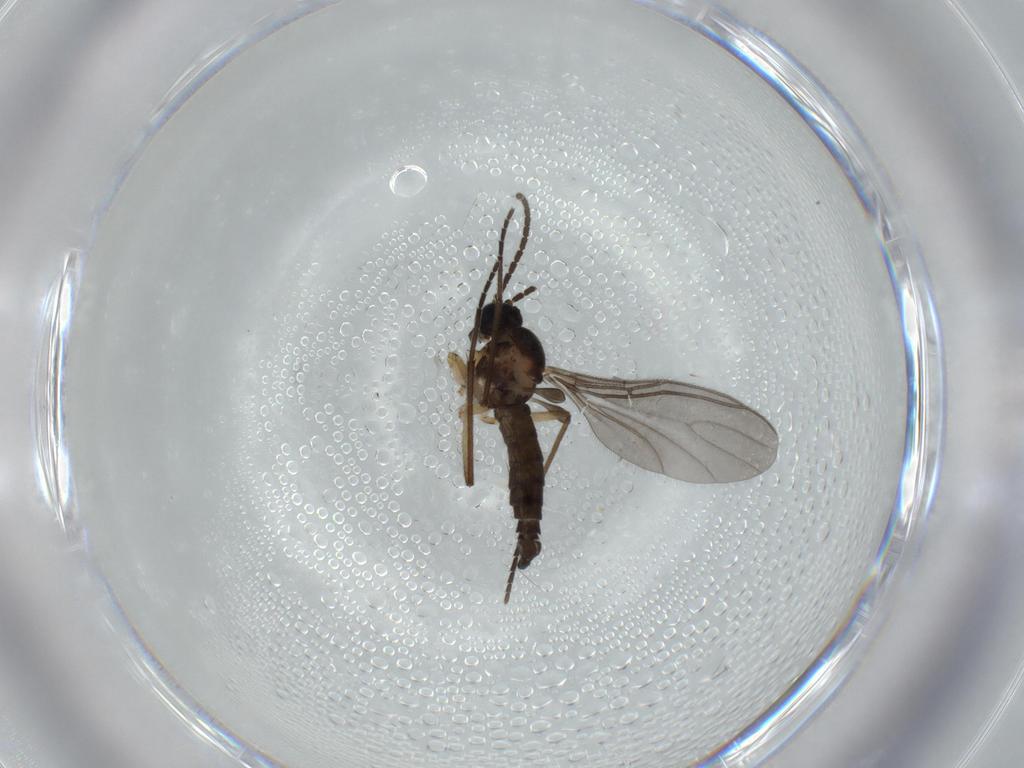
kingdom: Animalia
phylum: Arthropoda
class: Insecta
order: Diptera
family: Sciaridae
